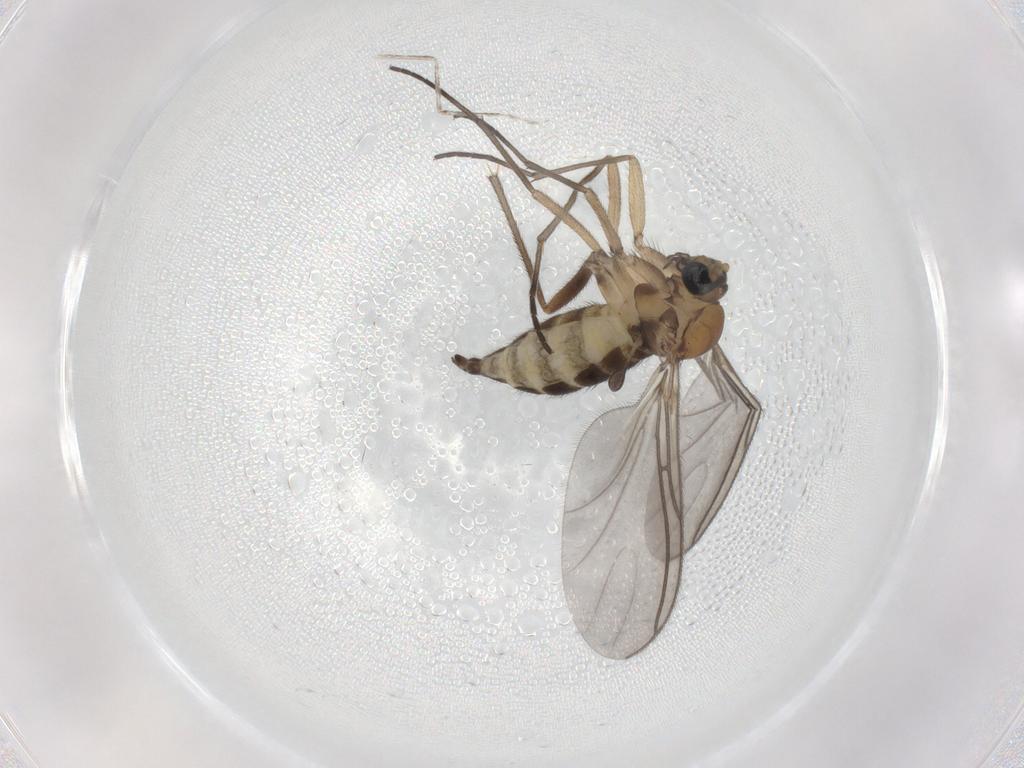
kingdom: Animalia
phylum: Arthropoda
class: Insecta
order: Diptera
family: Sciaridae
